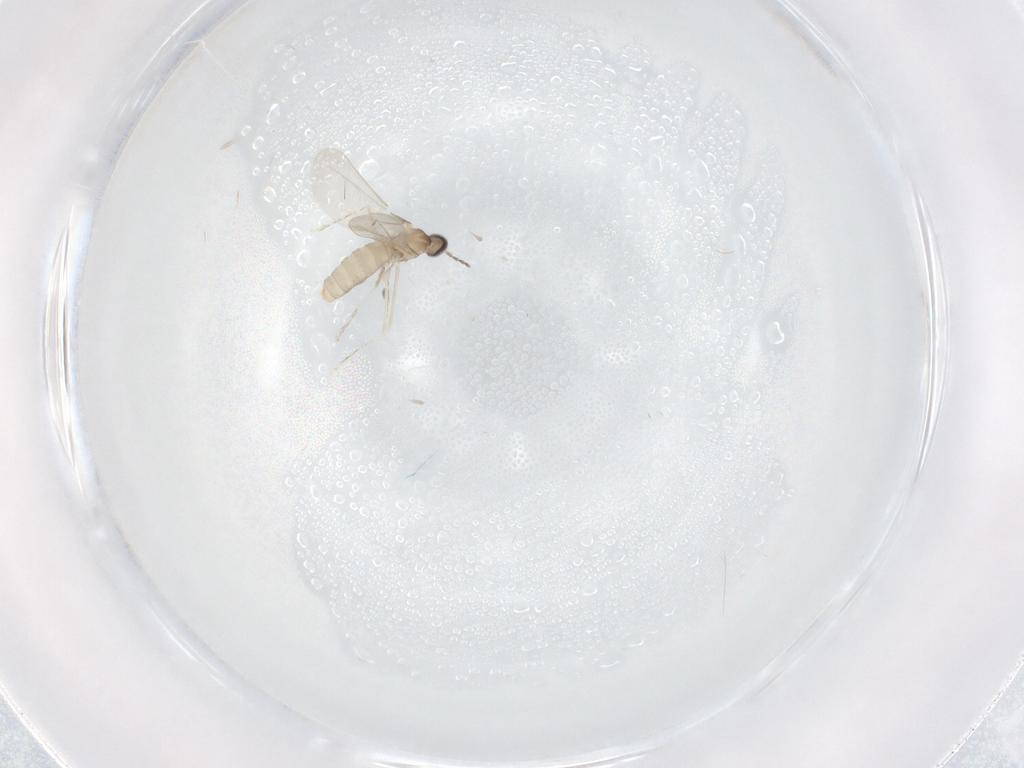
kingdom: Animalia
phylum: Arthropoda
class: Insecta
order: Diptera
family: Cecidomyiidae
